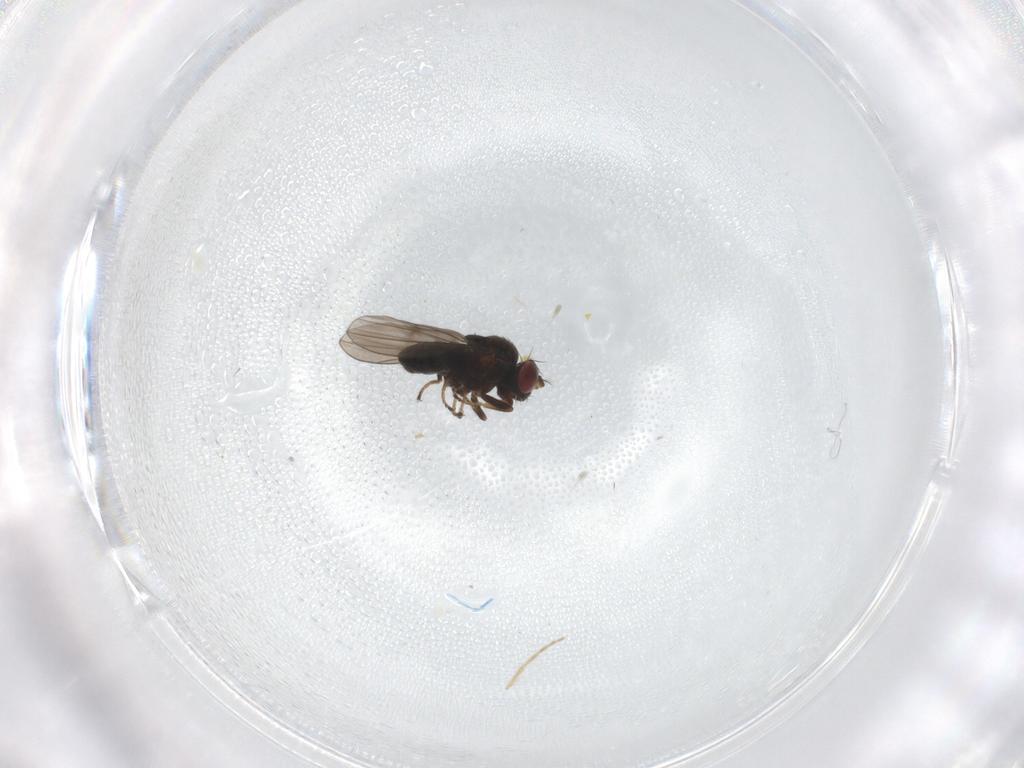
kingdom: Animalia
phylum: Arthropoda
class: Insecta
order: Diptera
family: Ephydridae
